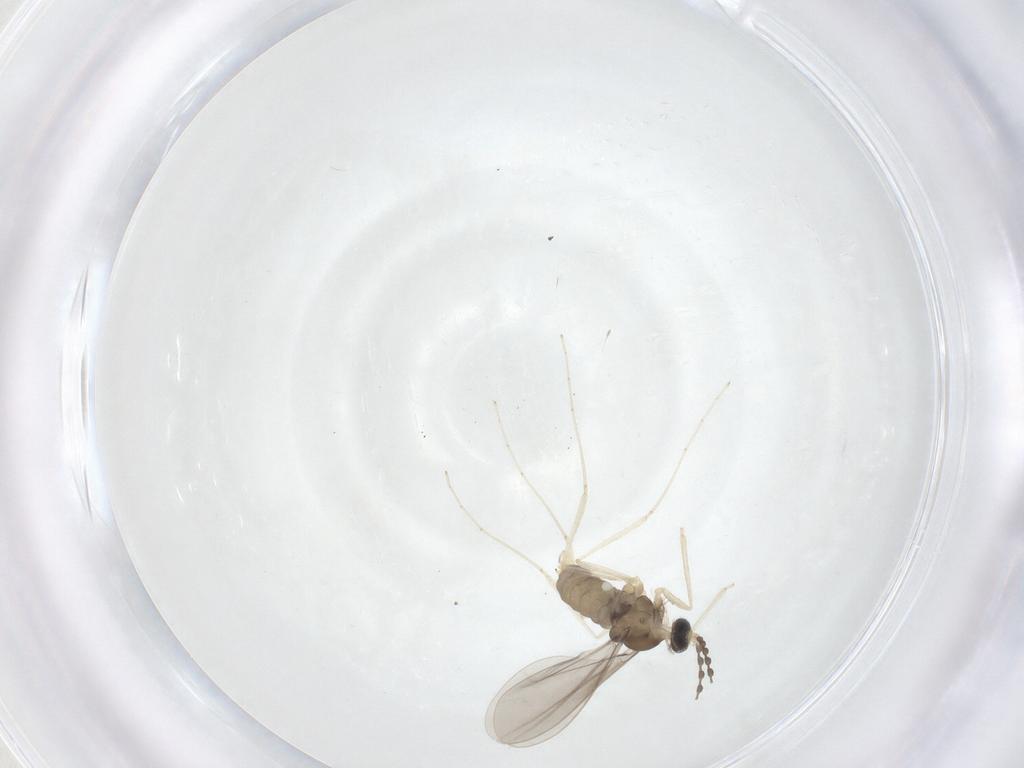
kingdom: Animalia
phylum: Arthropoda
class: Insecta
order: Diptera
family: Cecidomyiidae
